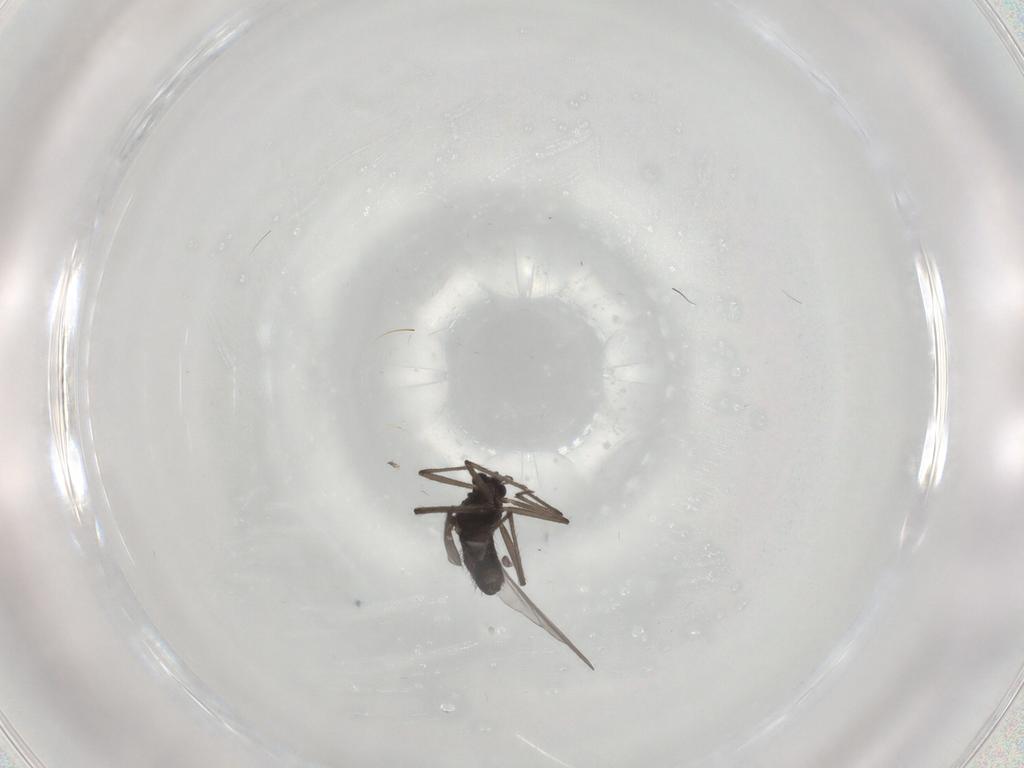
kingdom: Animalia
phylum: Arthropoda
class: Insecta
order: Diptera
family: Chironomidae
